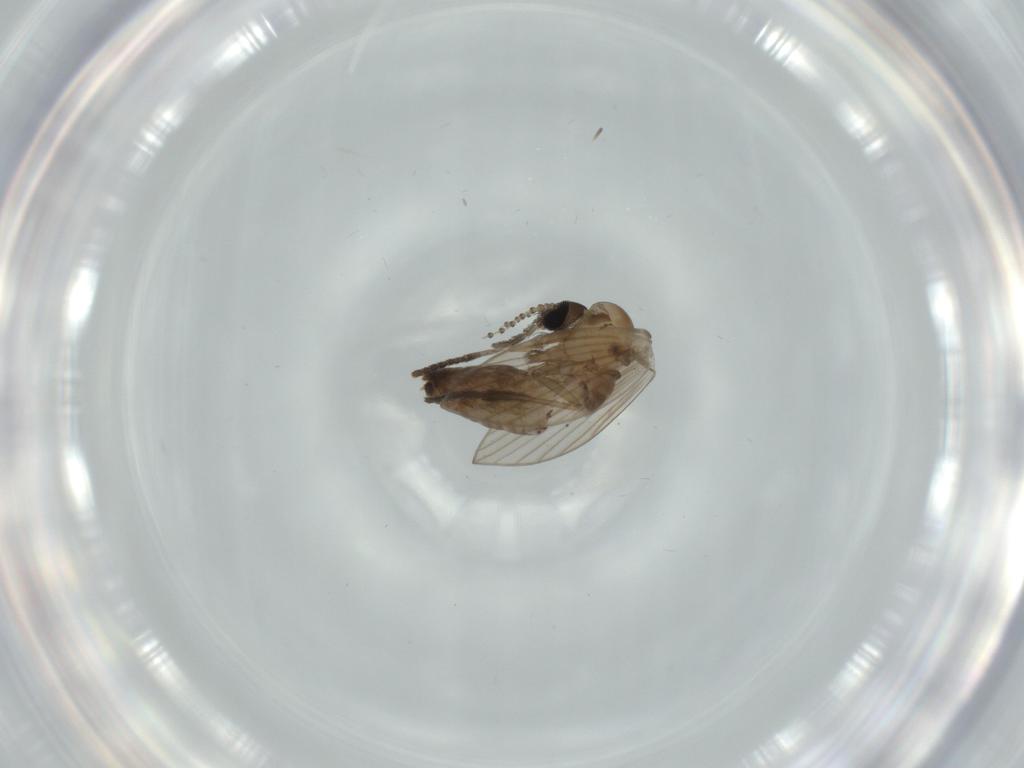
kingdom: Animalia
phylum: Arthropoda
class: Insecta
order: Diptera
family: Psychodidae
